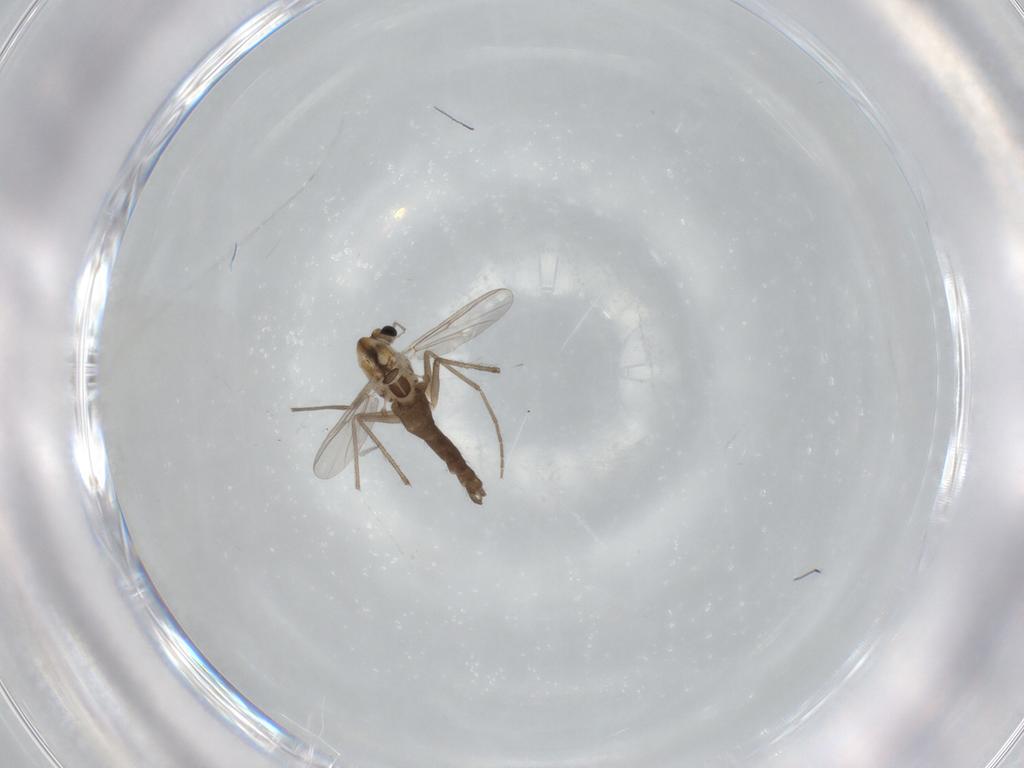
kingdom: Animalia
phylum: Arthropoda
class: Insecta
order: Diptera
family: Chironomidae
